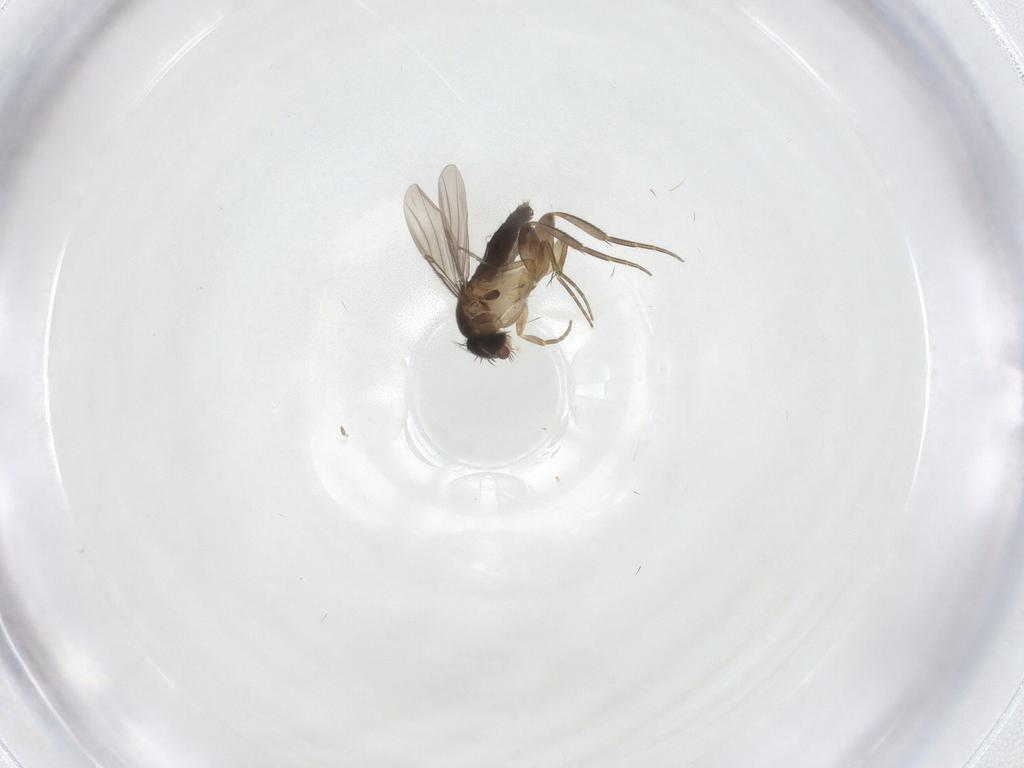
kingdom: Animalia
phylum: Arthropoda
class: Insecta
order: Diptera
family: Phoridae
